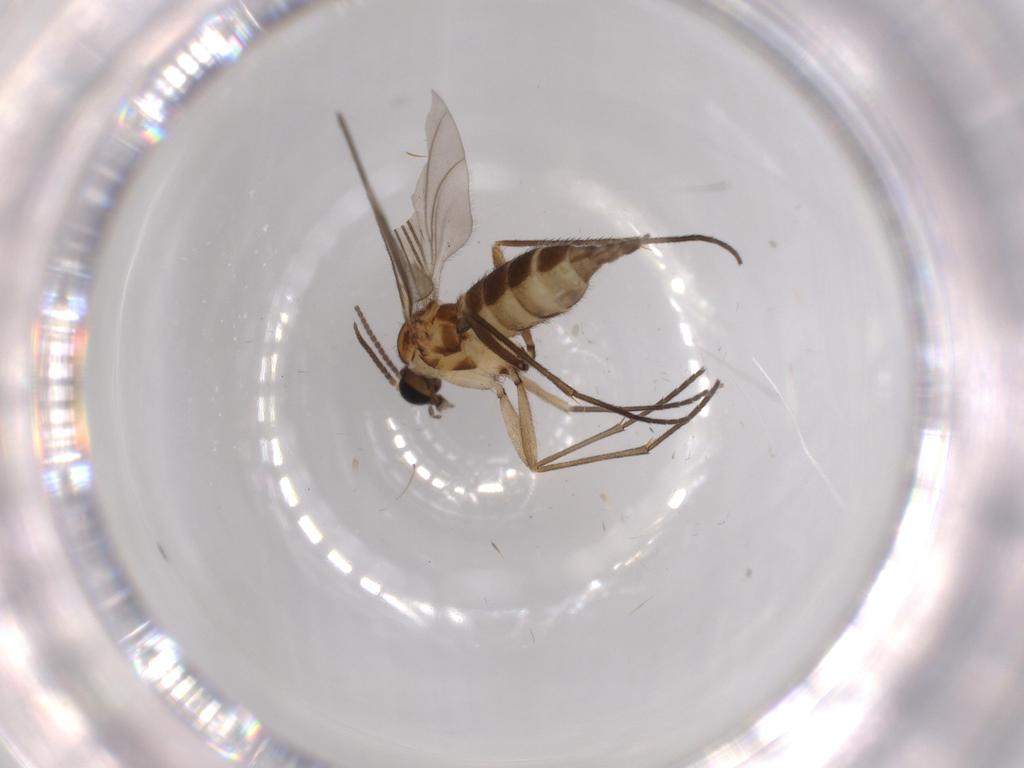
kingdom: Animalia
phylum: Arthropoda
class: Insecta
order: Diptera
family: Sciaridae
